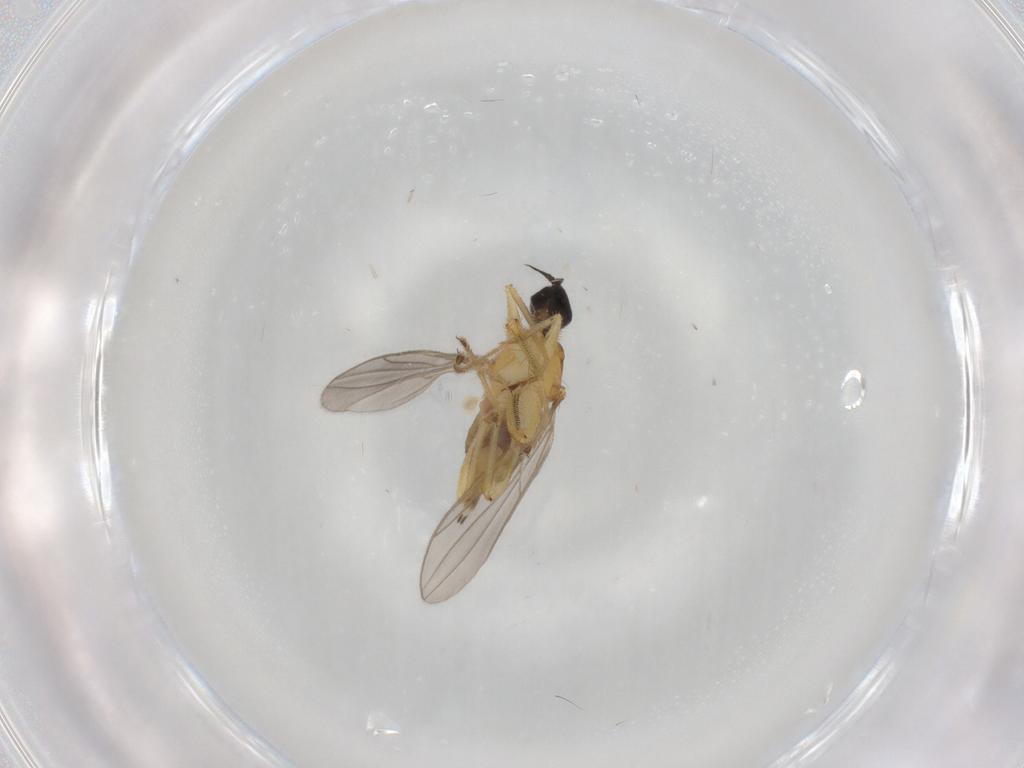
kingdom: Animalia
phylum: Arthropoda
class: Insecta
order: Diptera
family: Hybotidae
